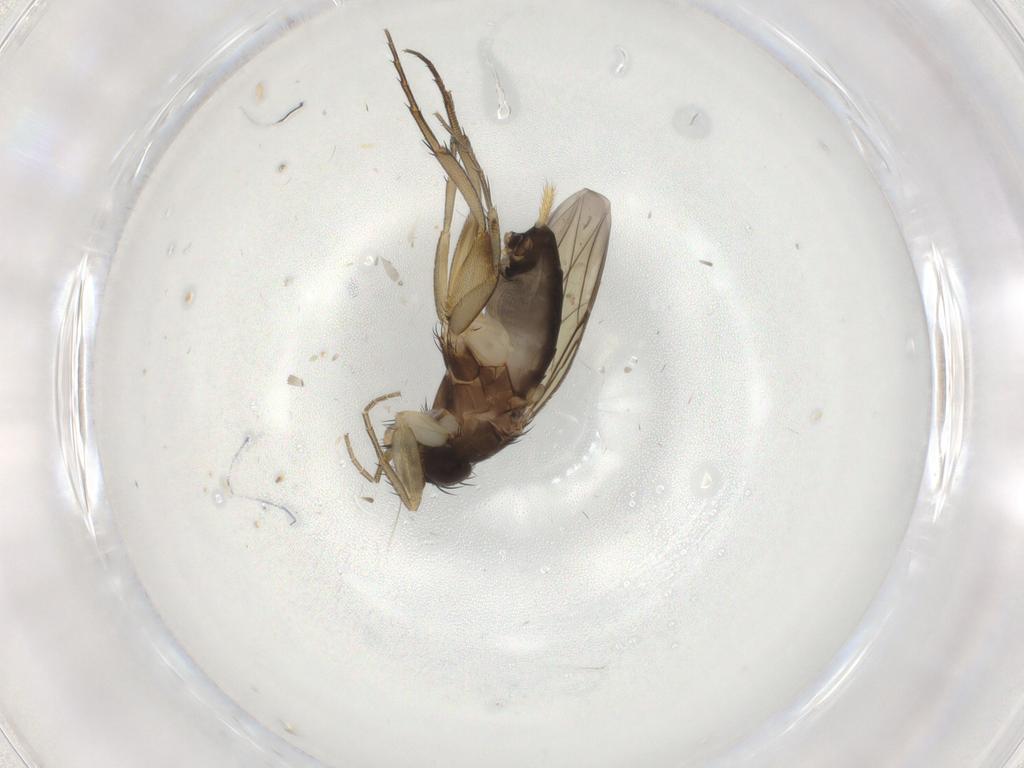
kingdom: Animalia
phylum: Arthropoda
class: Insecta
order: Diptera
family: Phoridae
